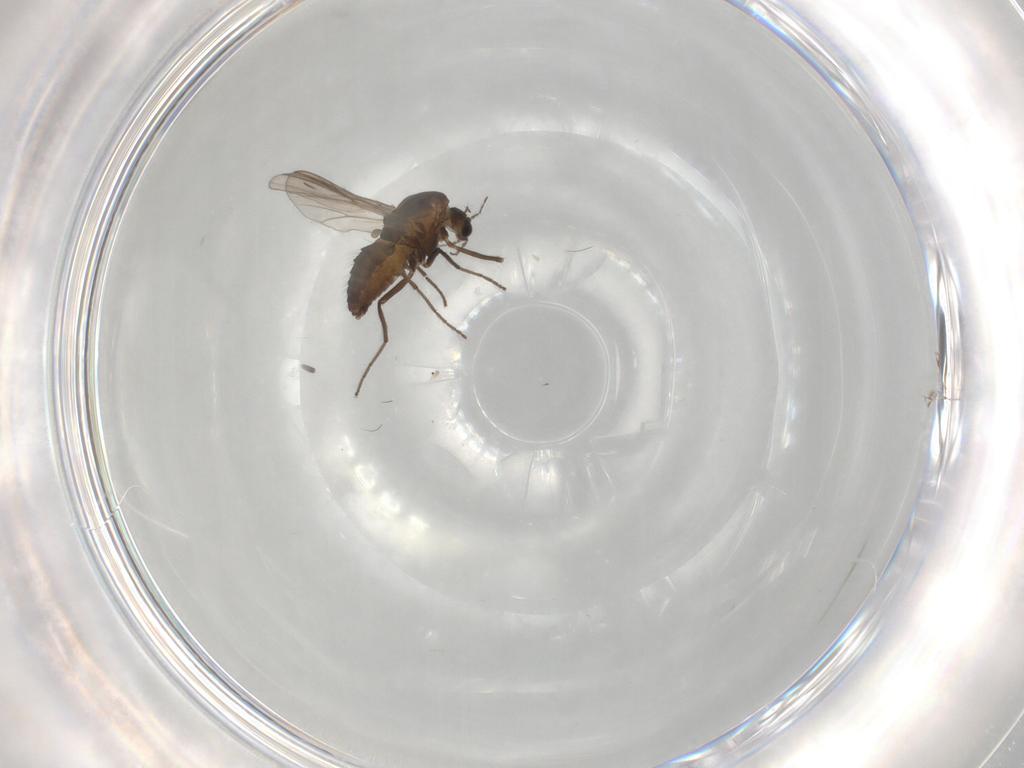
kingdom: Animalia
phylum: Arthropoda
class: Insecta
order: Diptera
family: Chironomidae
